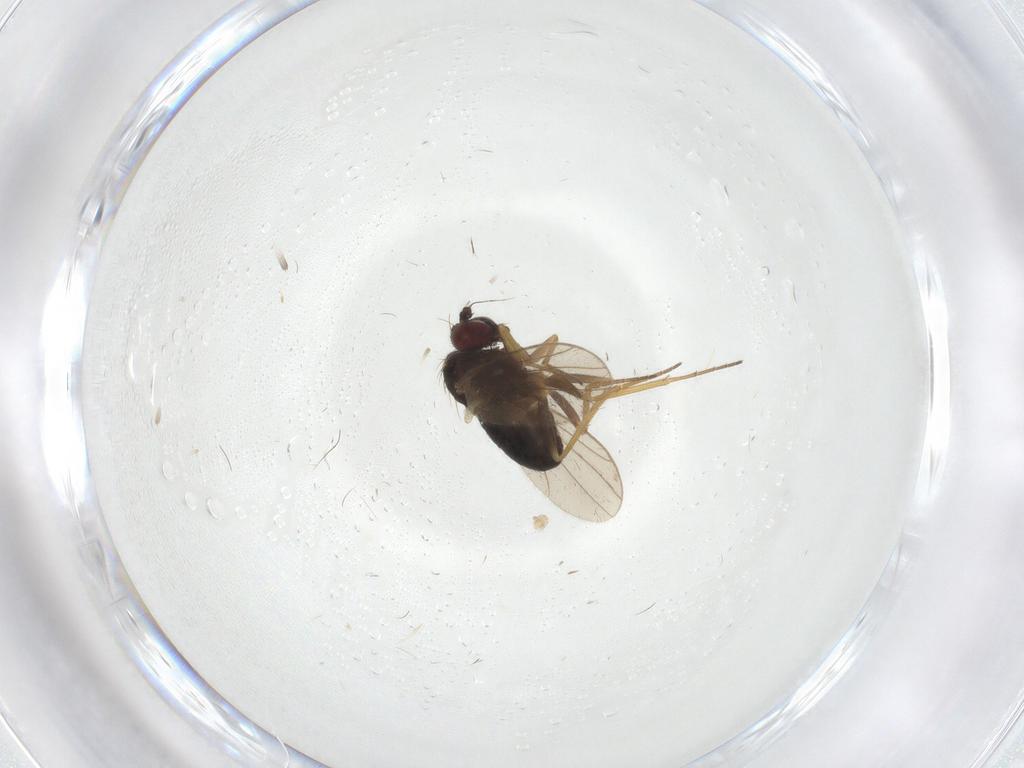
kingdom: Animalia
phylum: Arthropoda
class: Insecta
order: Diptera
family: Dolichopodidae
